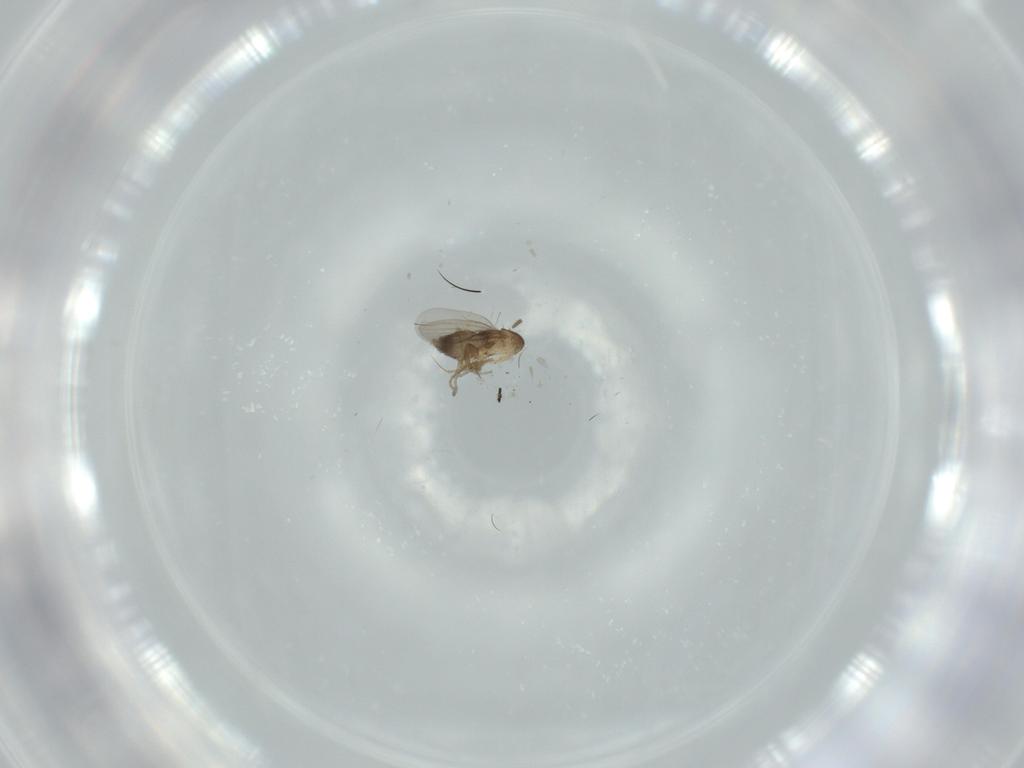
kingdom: Animalia
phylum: Arthropoda
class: Insecta
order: Diptera
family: Phoridae
